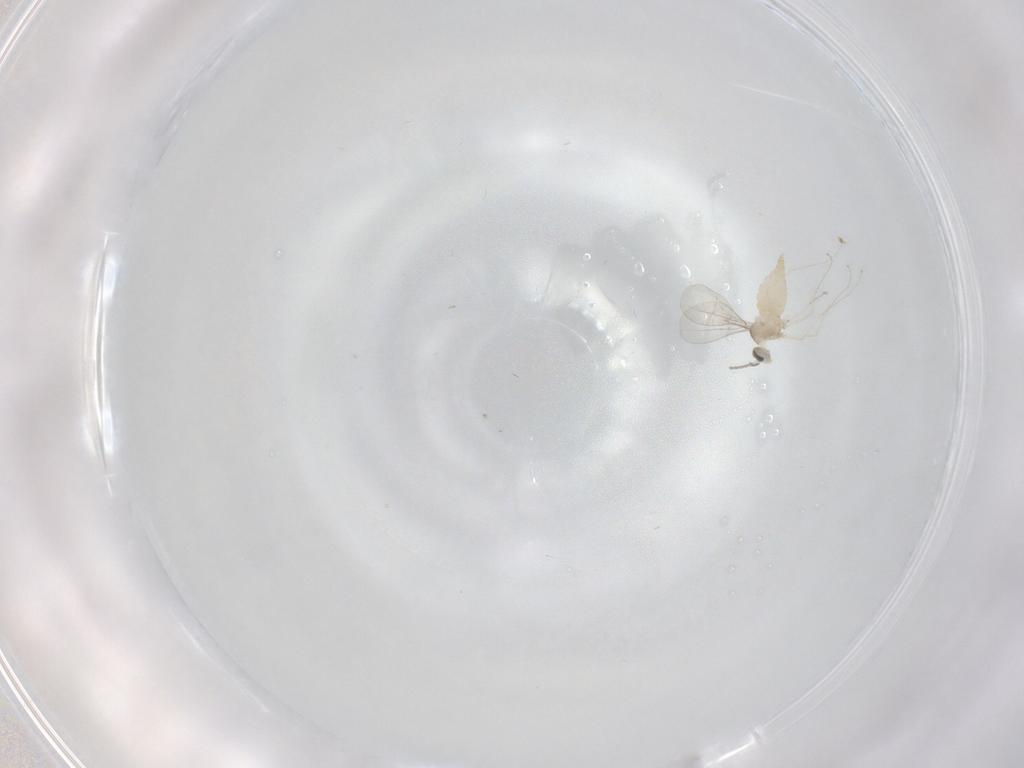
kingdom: Animalia
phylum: Arthropoda
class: Insecta
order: Diptera
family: Cecidomyiidae
